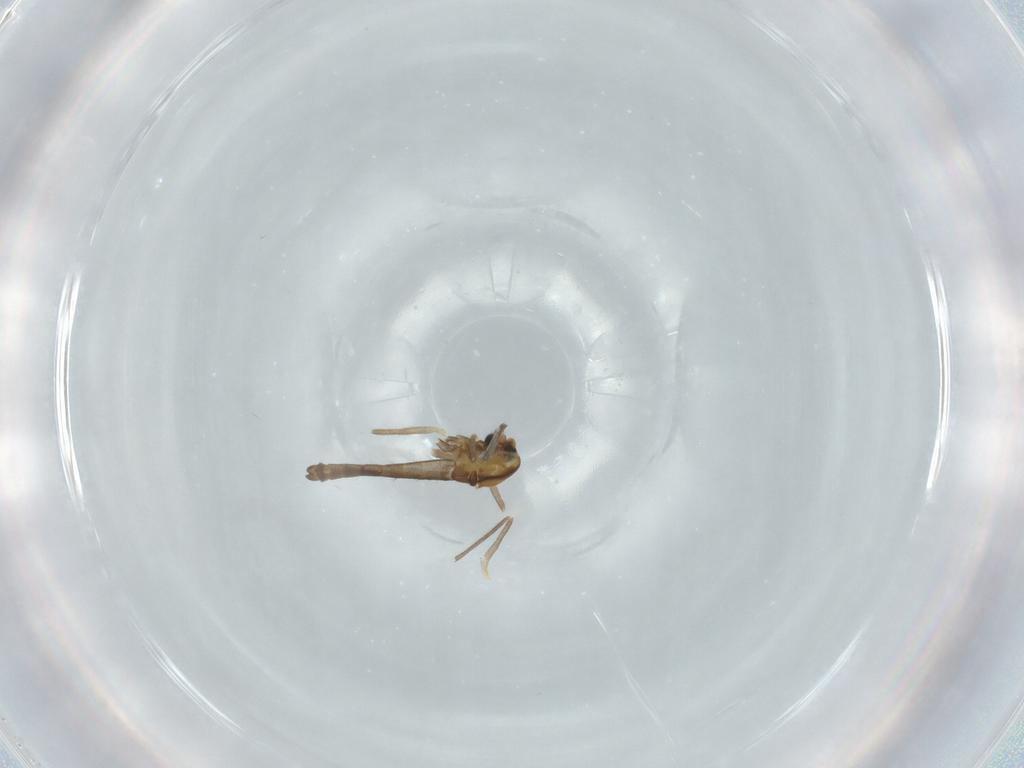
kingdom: Animalia
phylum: Arthropoda
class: Insecta
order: Diptera
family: Chironomidae
